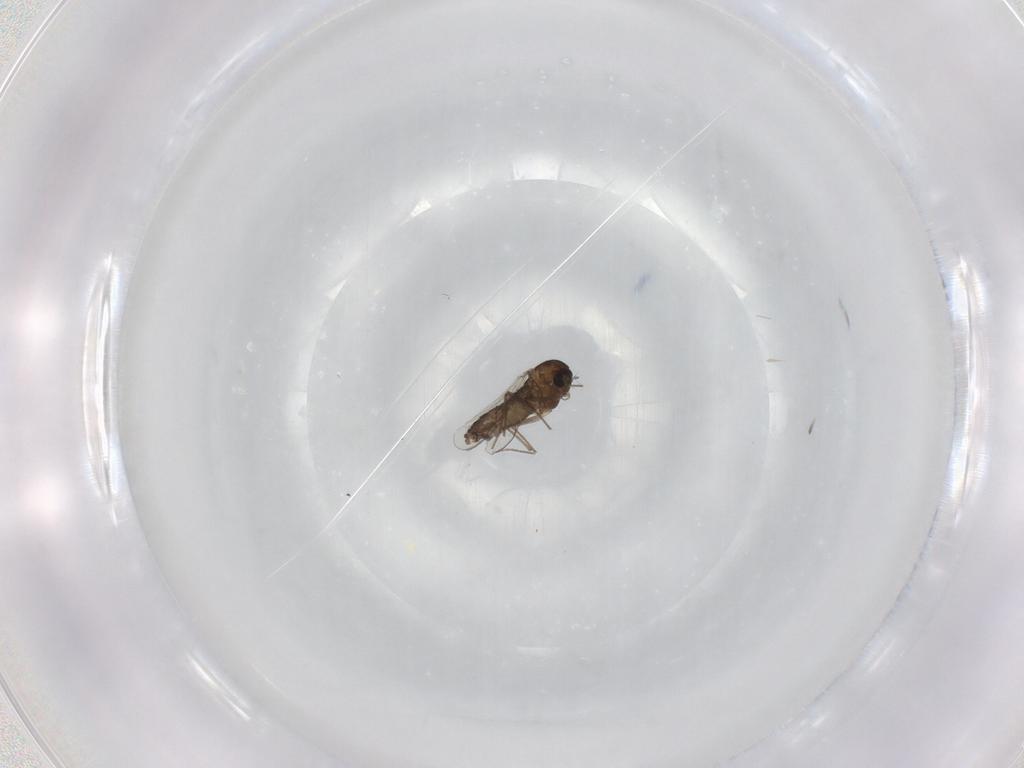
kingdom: Animalia
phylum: Arthropoda
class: Insecta
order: Diptera
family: Chironomidae
